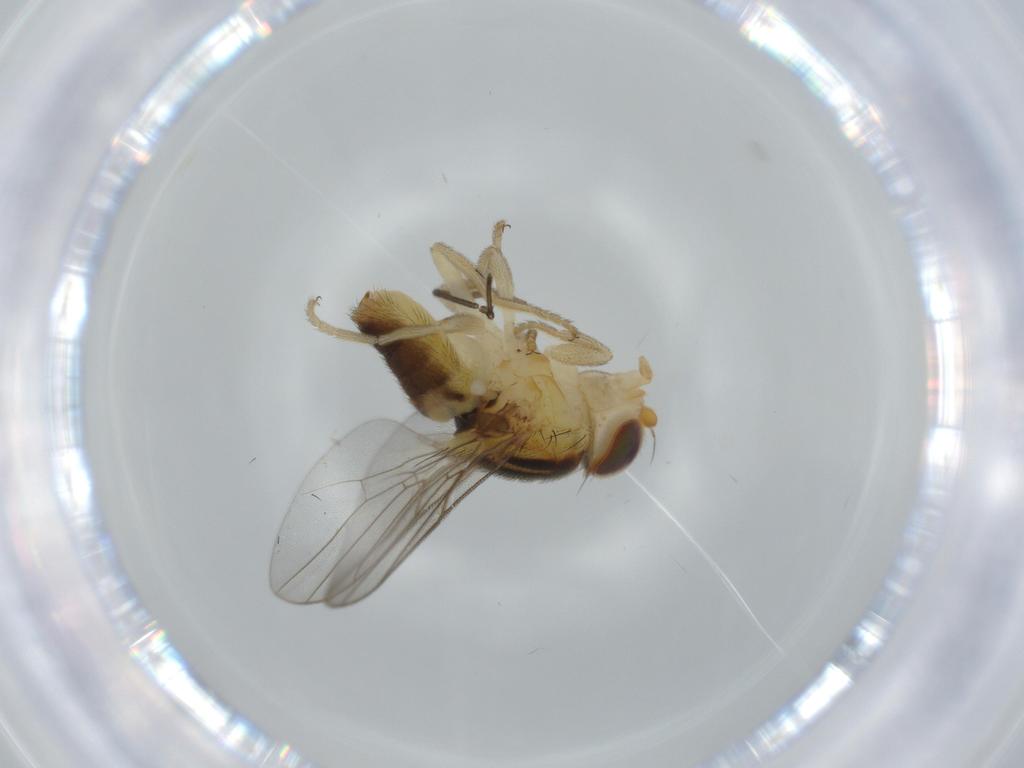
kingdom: Animalia
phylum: Arthropoda
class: Insecta
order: Diptera
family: Chloropidae
